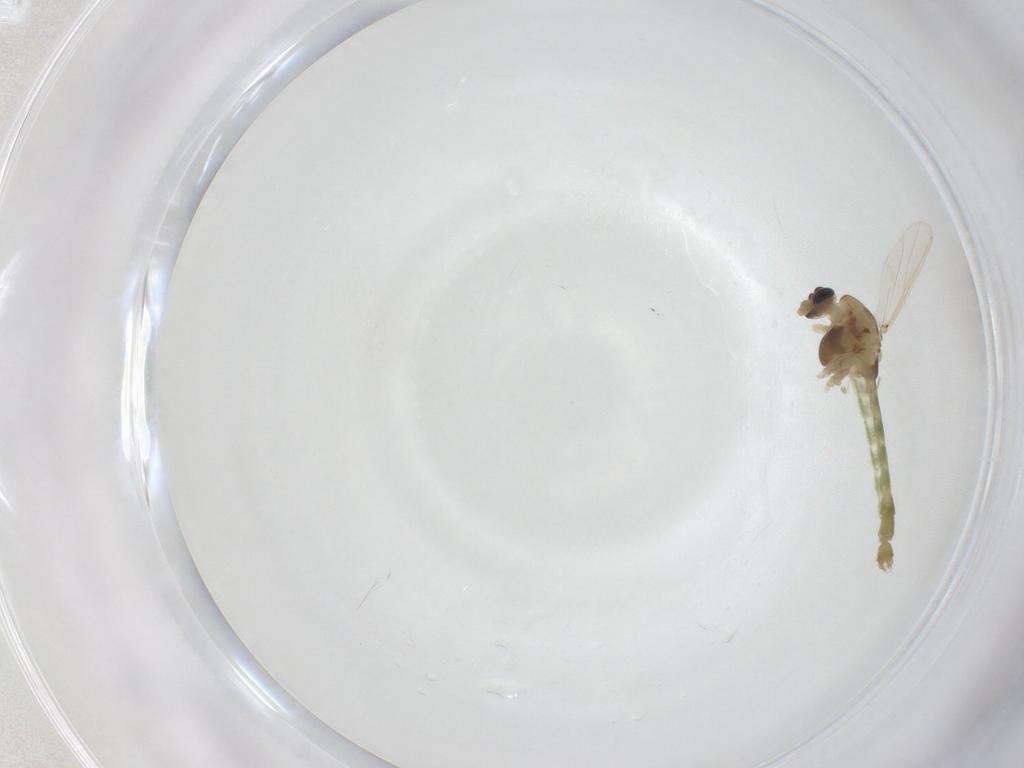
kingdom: Animalia
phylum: Arthropoda
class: Insecta
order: Diptera
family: Chironomidae
